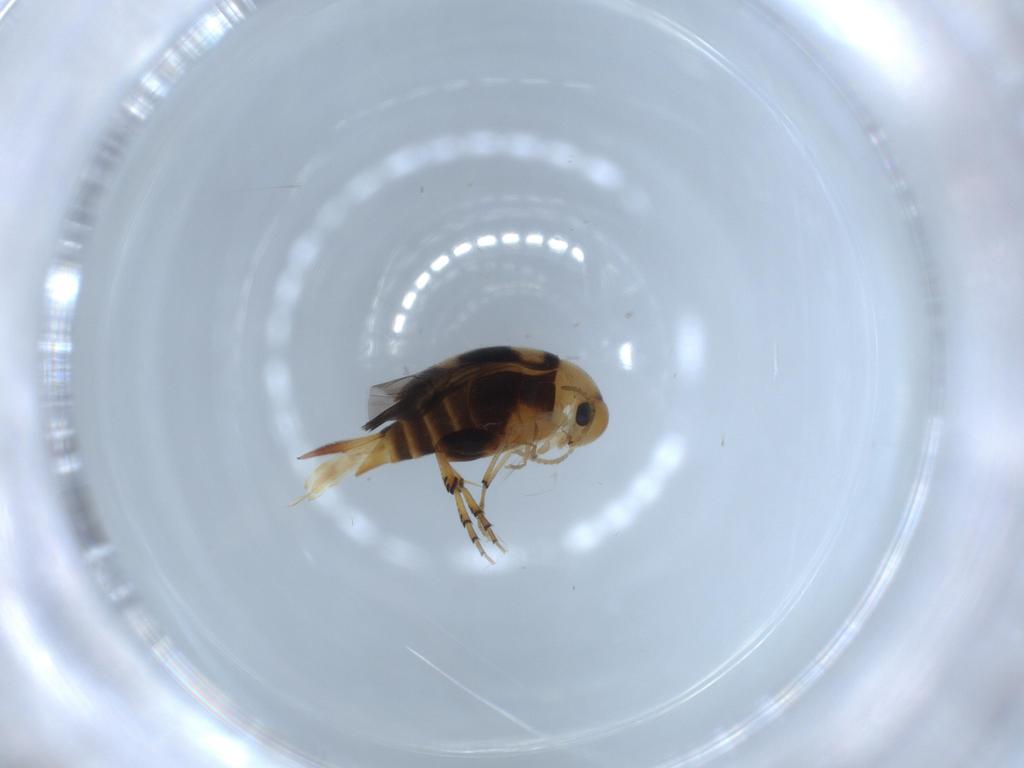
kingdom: Animalia
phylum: Arthropoda
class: Insecta
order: Coleoptera
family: Mordellidae
